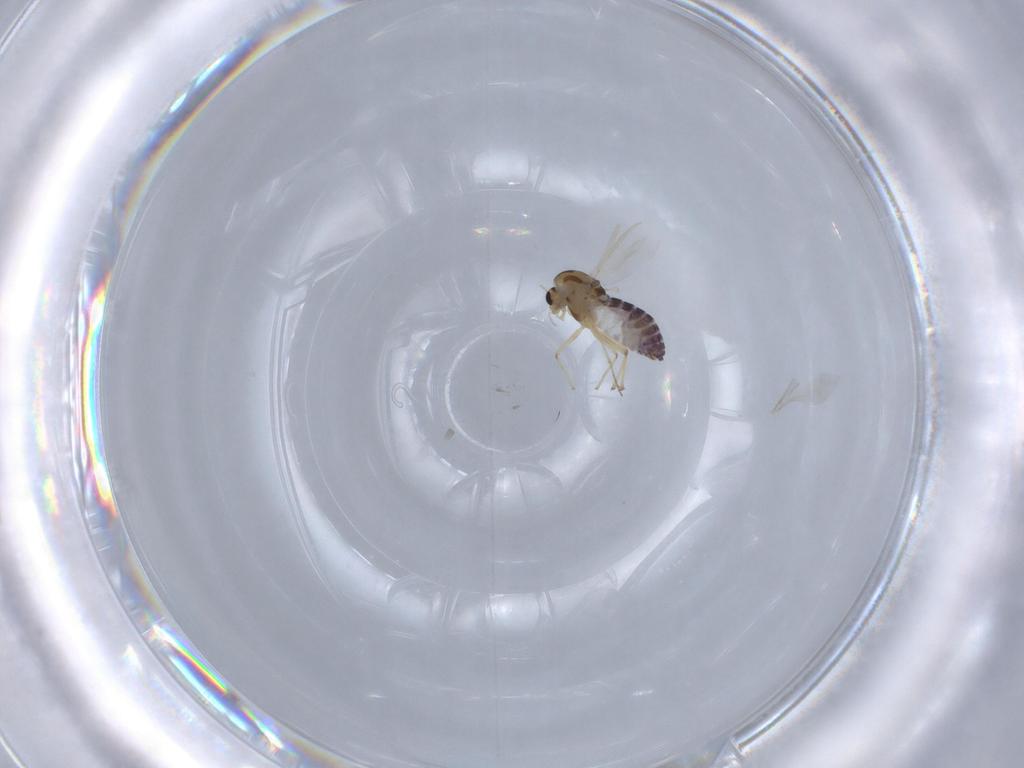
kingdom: Animalia
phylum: Arthropoda
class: Insecta
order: Diptera
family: Chironomidae
